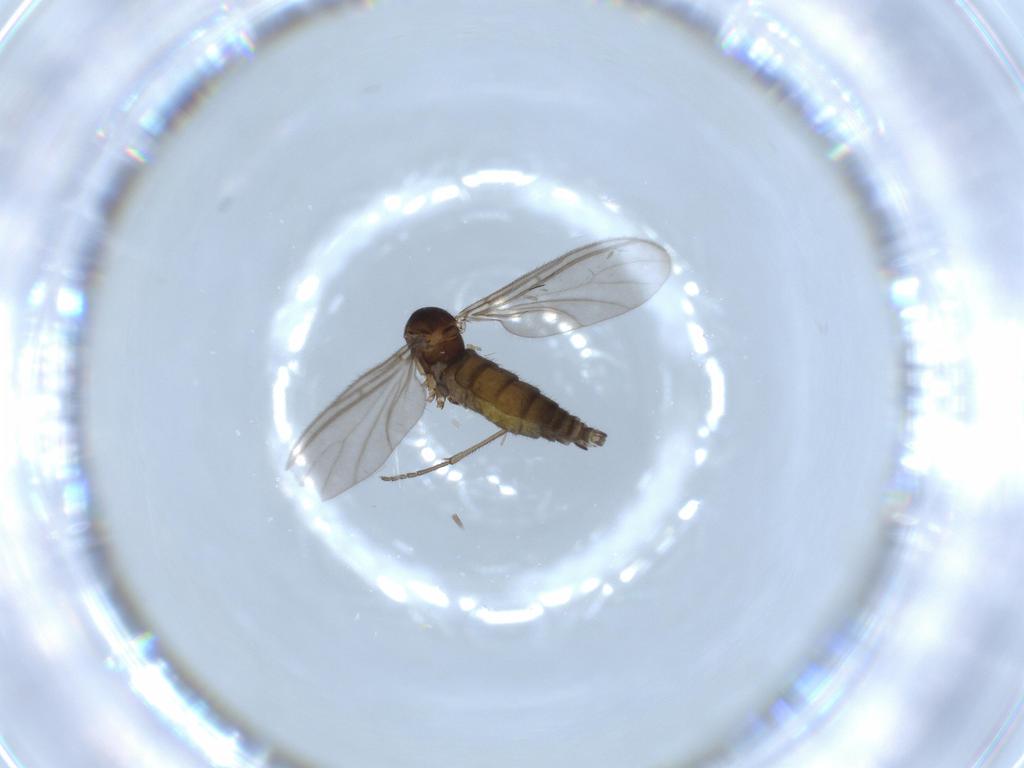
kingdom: Animalia
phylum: Arthropoda
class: Insecta
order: Diptera
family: Sciaridae
